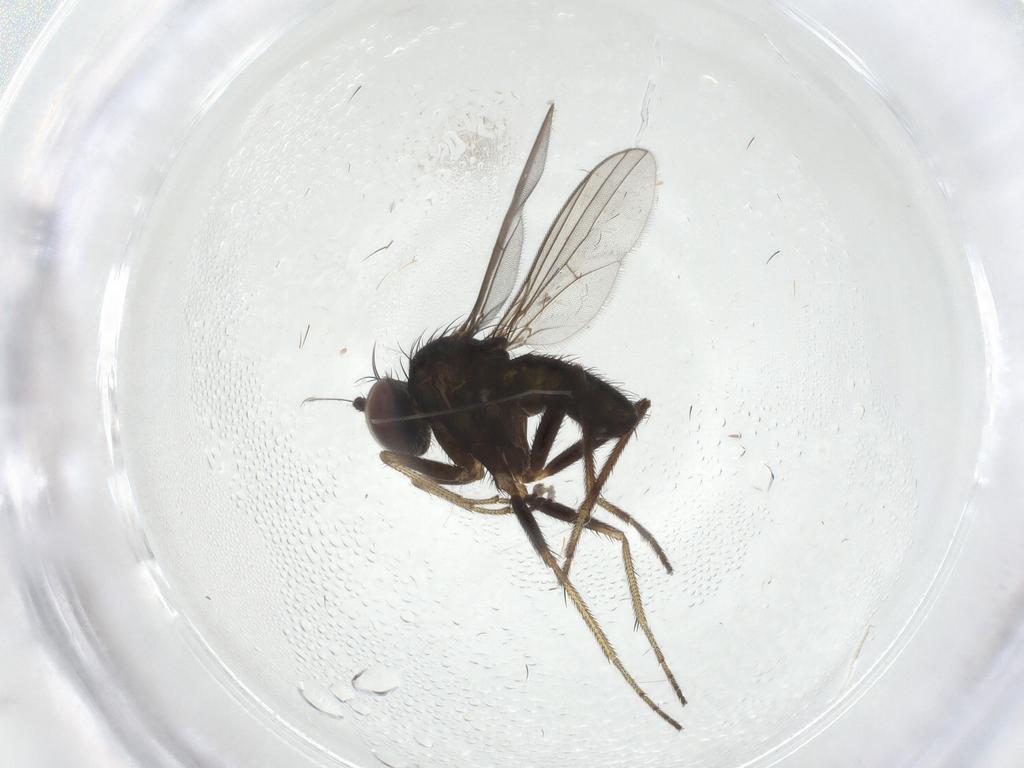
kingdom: Animalia
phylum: Arthropoda
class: Insecta
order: Diptera
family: Dolichopodidae
